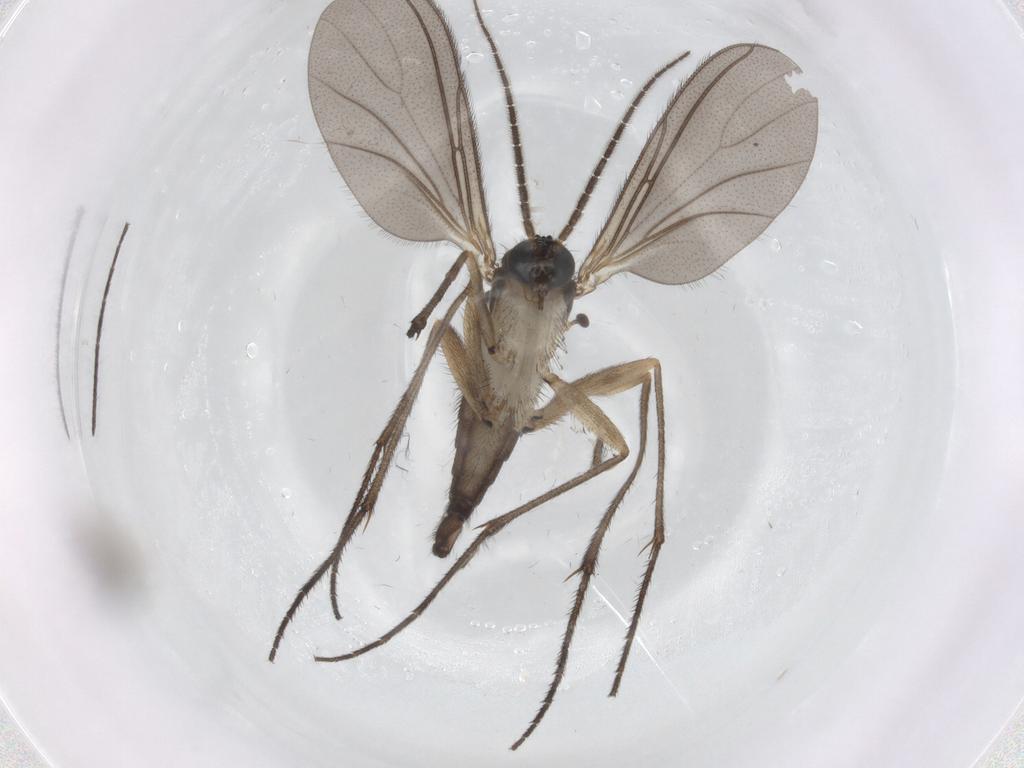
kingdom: Animalia
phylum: Arthropoda
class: Insecta
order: Diptera
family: Sciaridae
